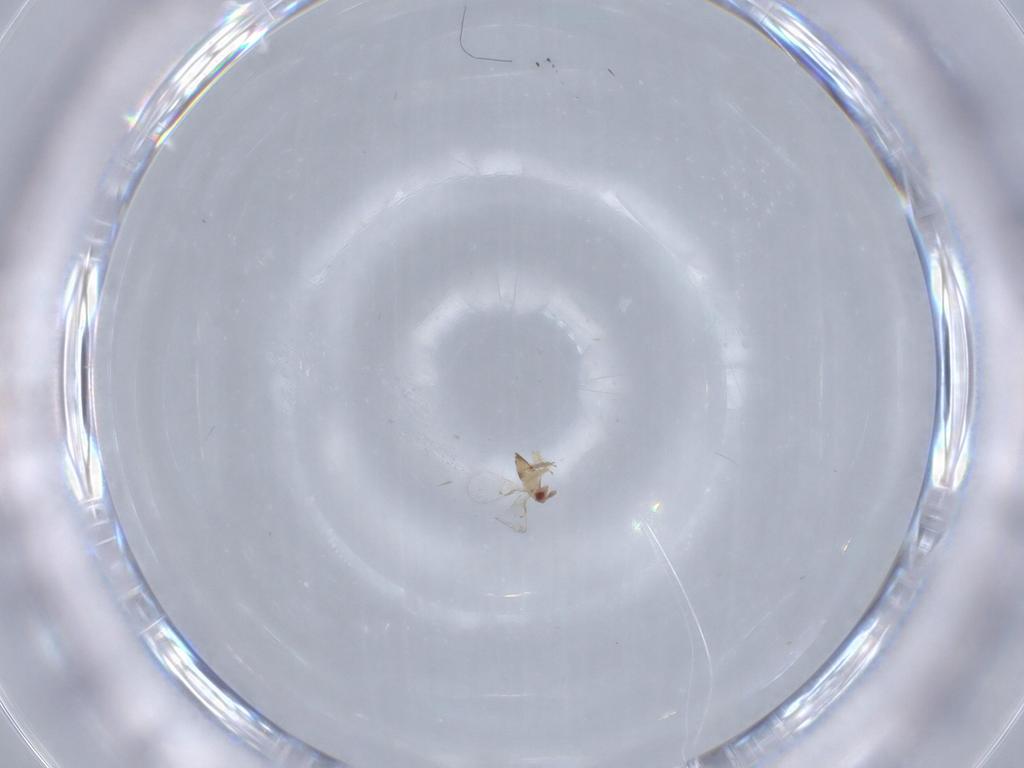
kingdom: Animalia
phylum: Arthropoda
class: Insecta
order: Hymenoptera
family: Trichogrammatidae
